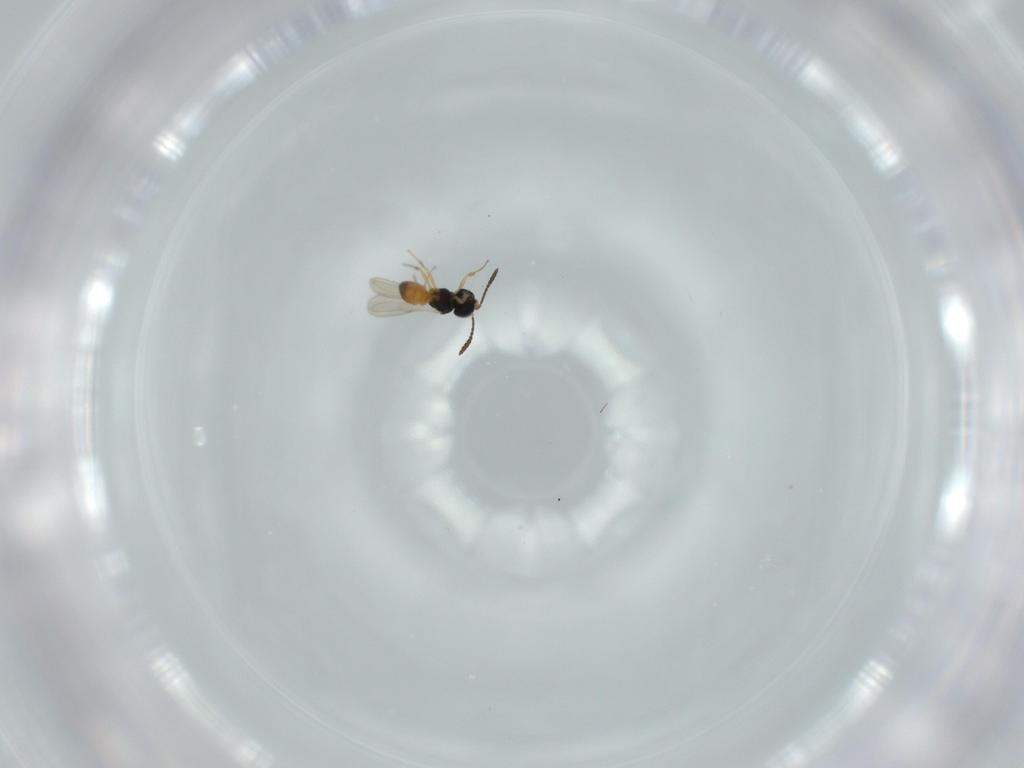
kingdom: Animalia
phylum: Arthropoda
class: Insecta
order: Hymenoptera
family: Scelionidae
